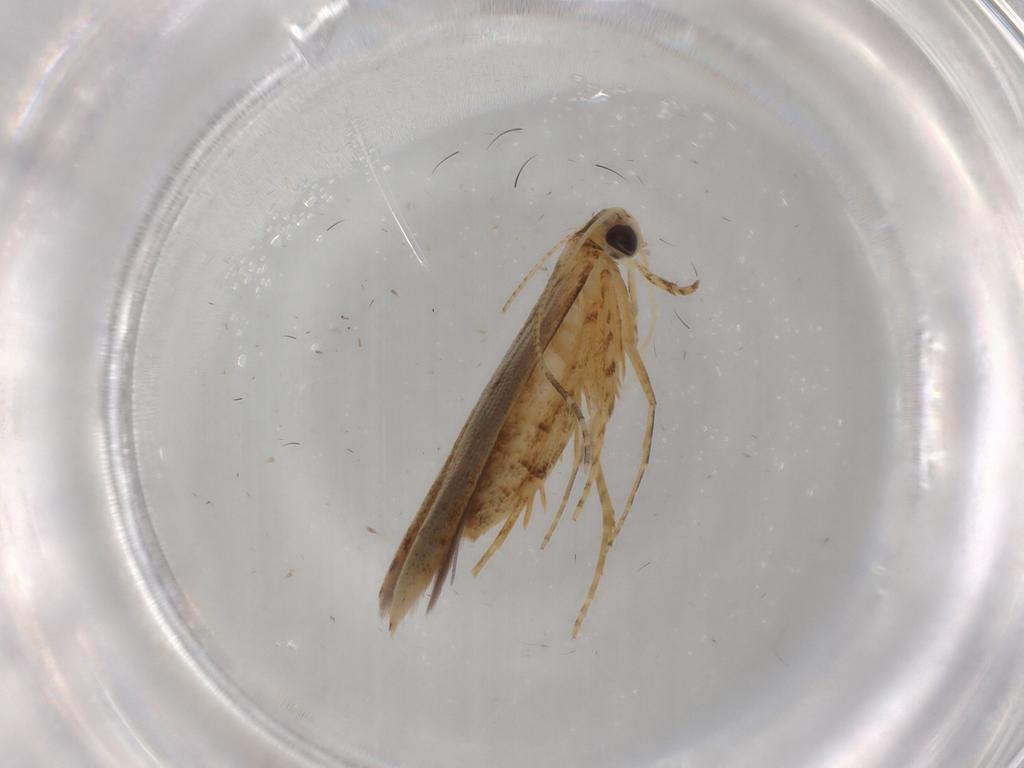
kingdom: Animalia
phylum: Arthropoda
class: Insecta
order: Lepidoptera
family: Batrachedridae
